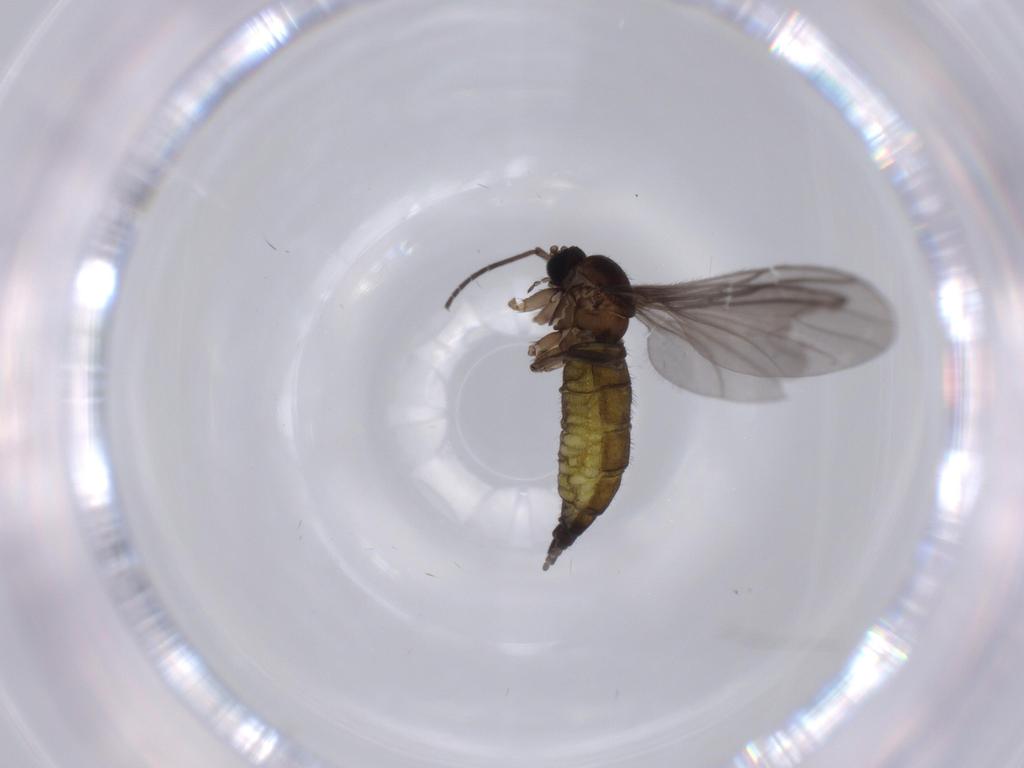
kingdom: Animalia
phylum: Arthropoda
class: Insecta
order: Diptera
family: Sciaridae
